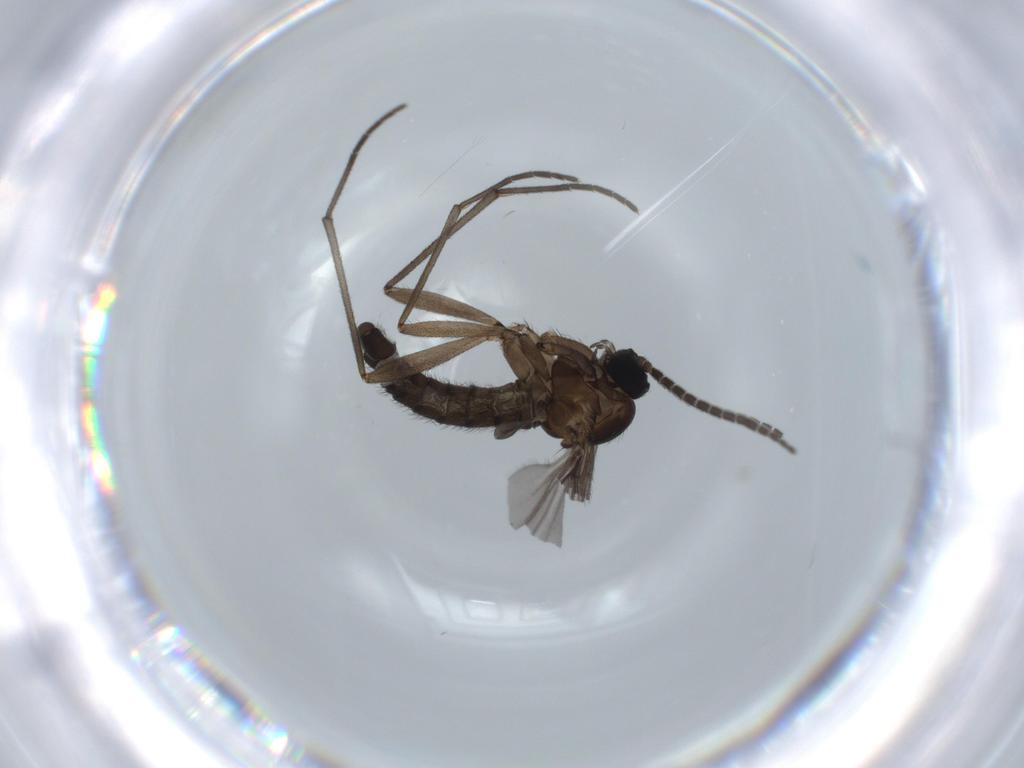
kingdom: Animalia
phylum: Arthropoda
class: Insecta
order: Diptera
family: Sciaridae
